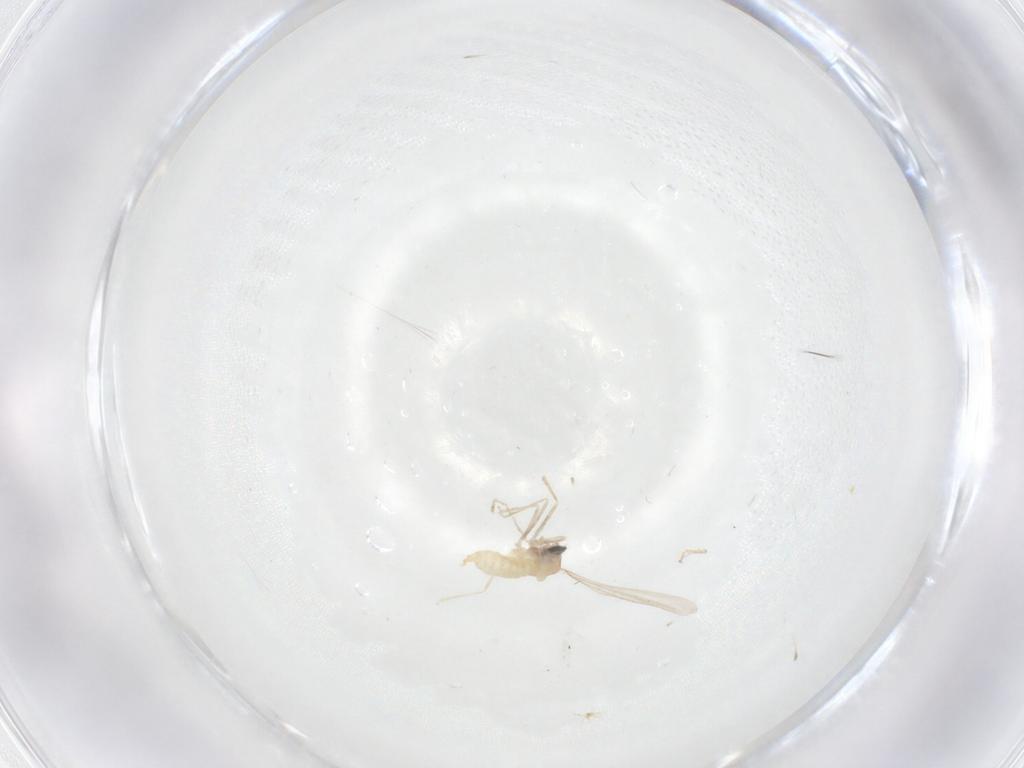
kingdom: Animalia
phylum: Arthropoda
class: Insecta
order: Diptera
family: Cecidomyiidae
